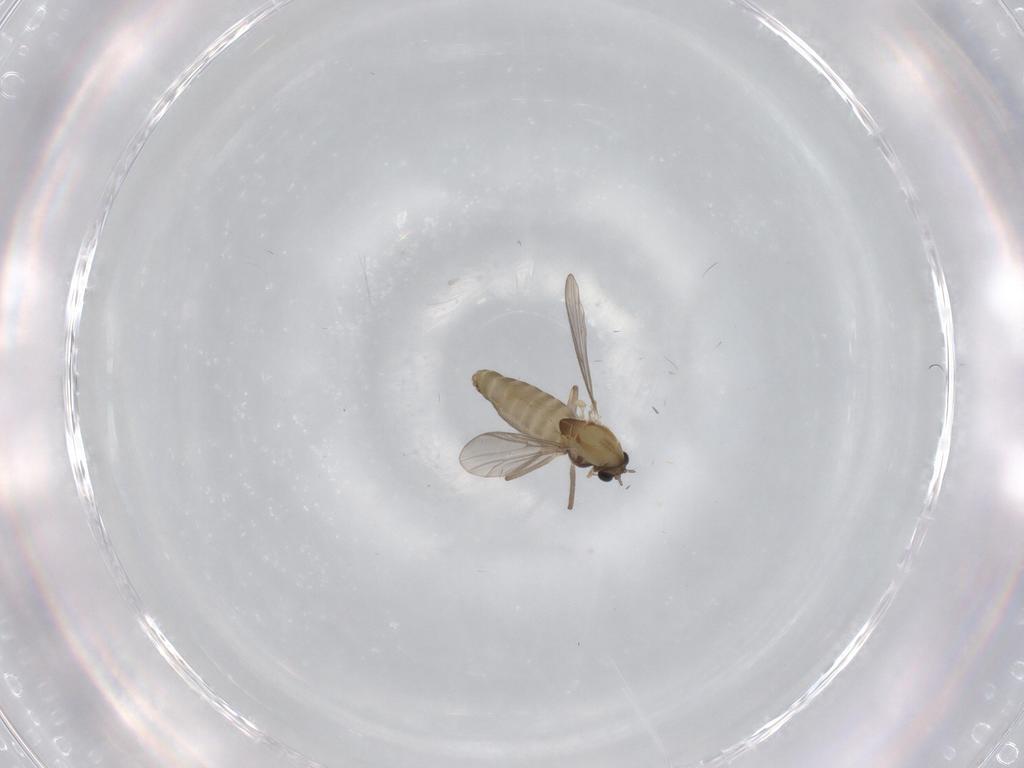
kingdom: Animalia
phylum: Arthropoda
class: Insecta
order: Diptera
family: Chironomidae
